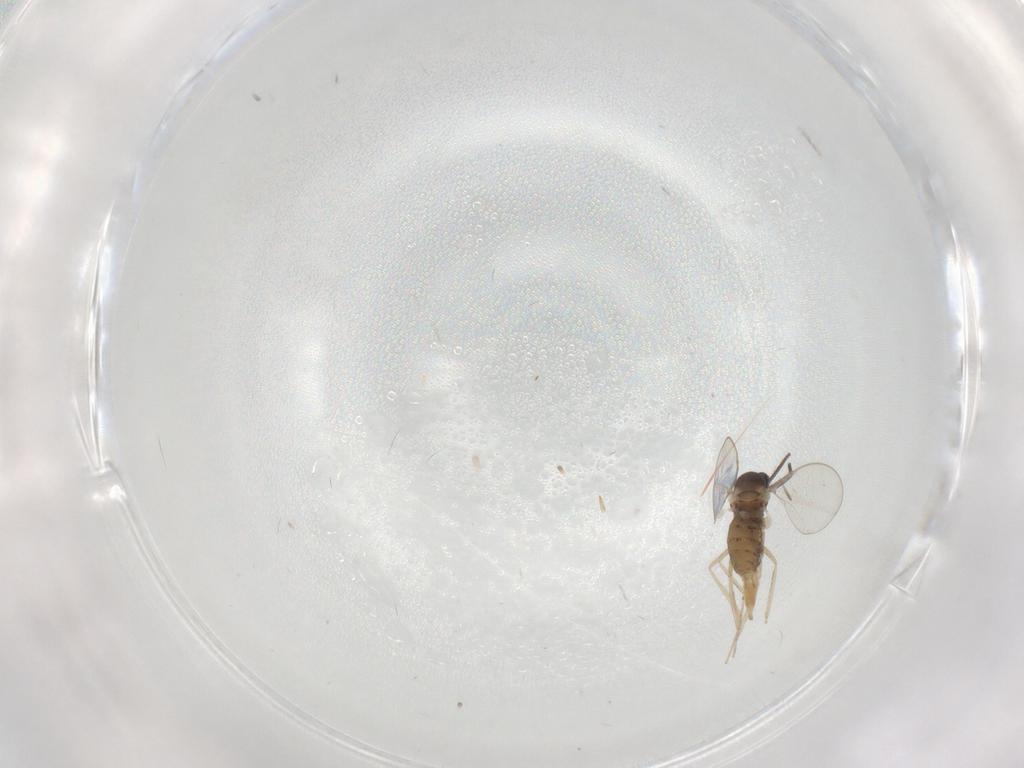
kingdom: Animalia
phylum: Arthropoda
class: Insecta
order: Diptera
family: Cecidomyiidae
